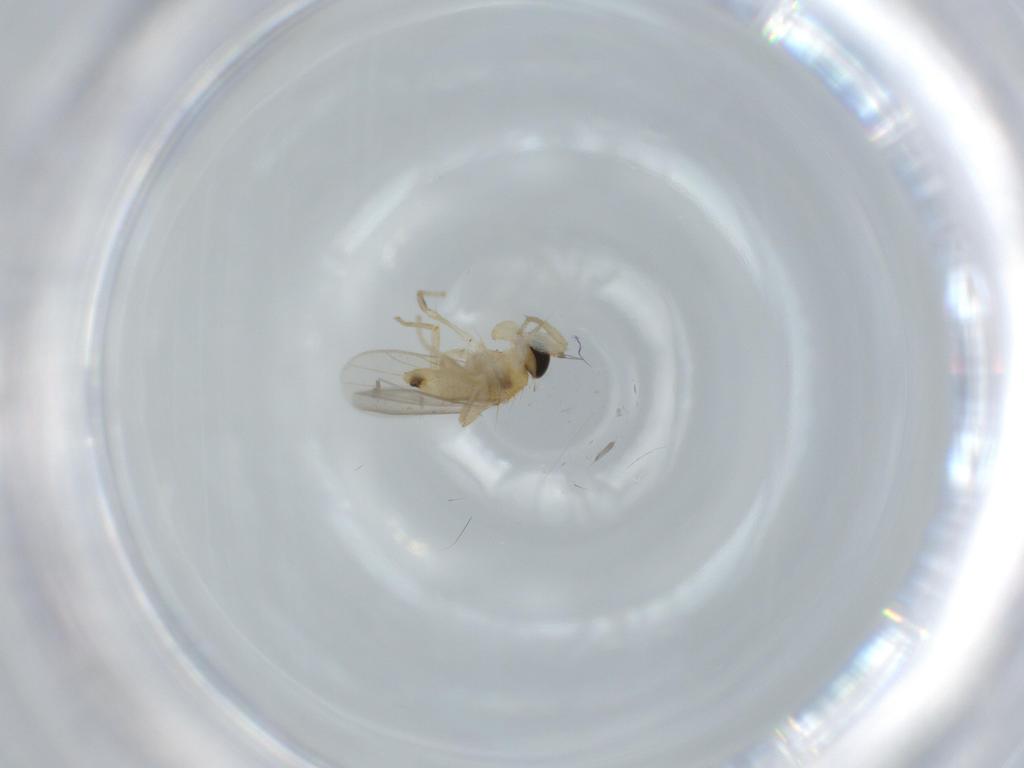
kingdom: Animalia
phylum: Arthropoda
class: Insecta
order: Diptera
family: Hybotidae
